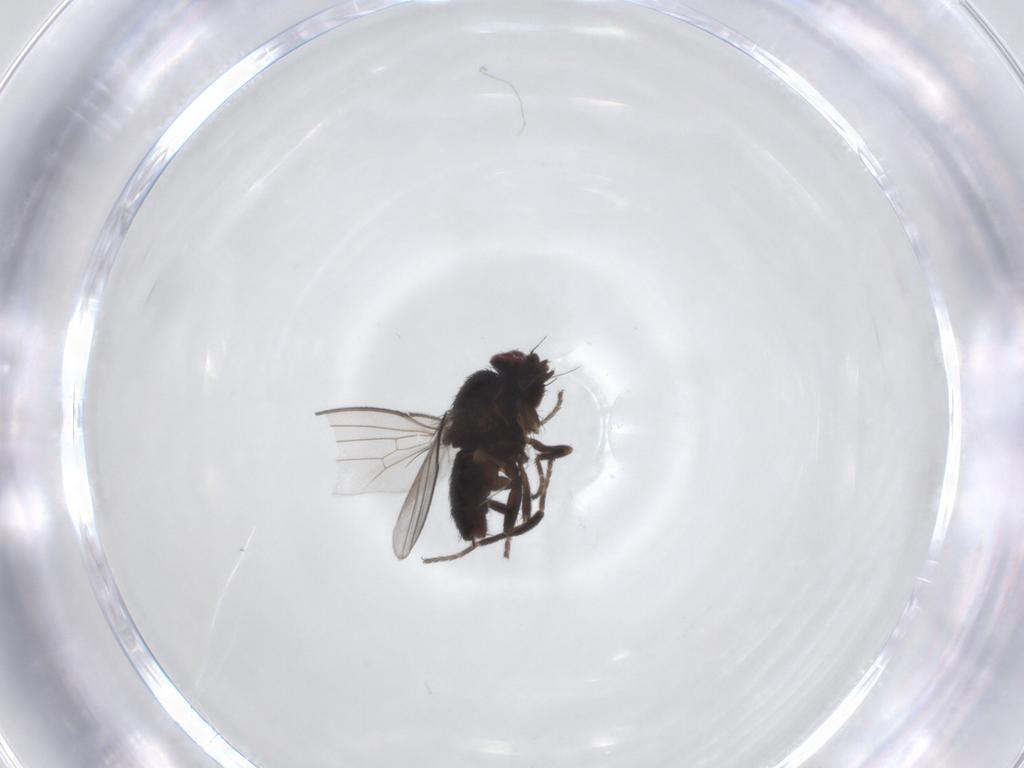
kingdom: Animalia
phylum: Arthropoda
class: Insecta
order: Diptera
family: Milichiidae
